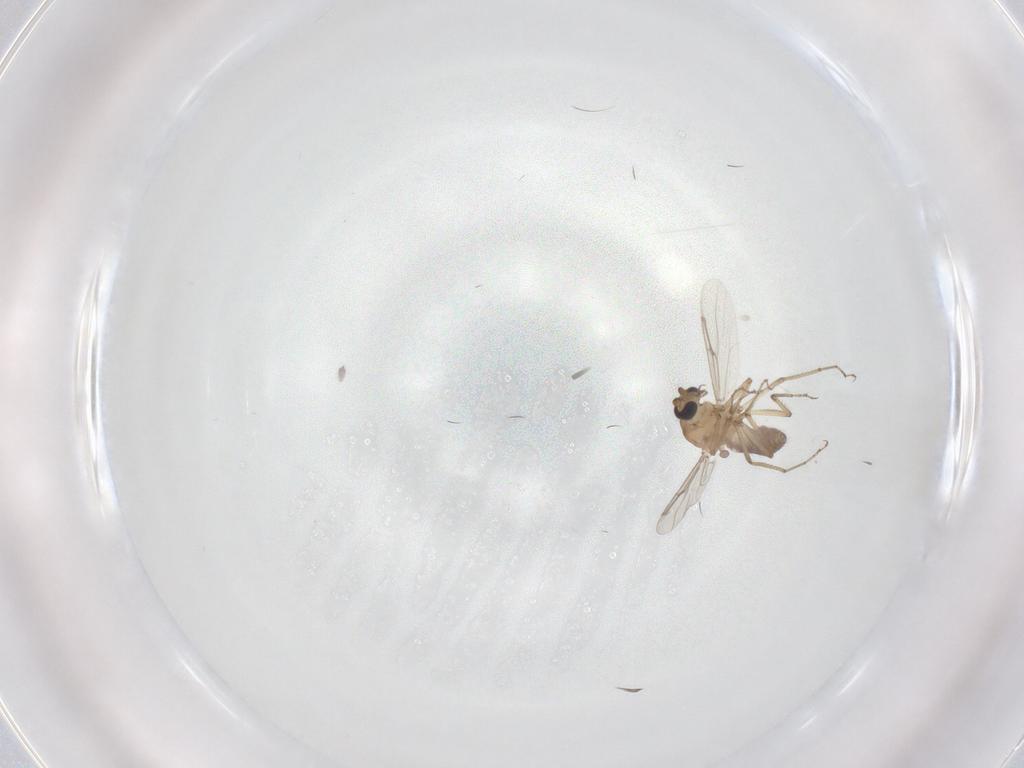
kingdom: Animalia
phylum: Arthropoda
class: Insecta
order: Diptera
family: Ceratopogonidae
